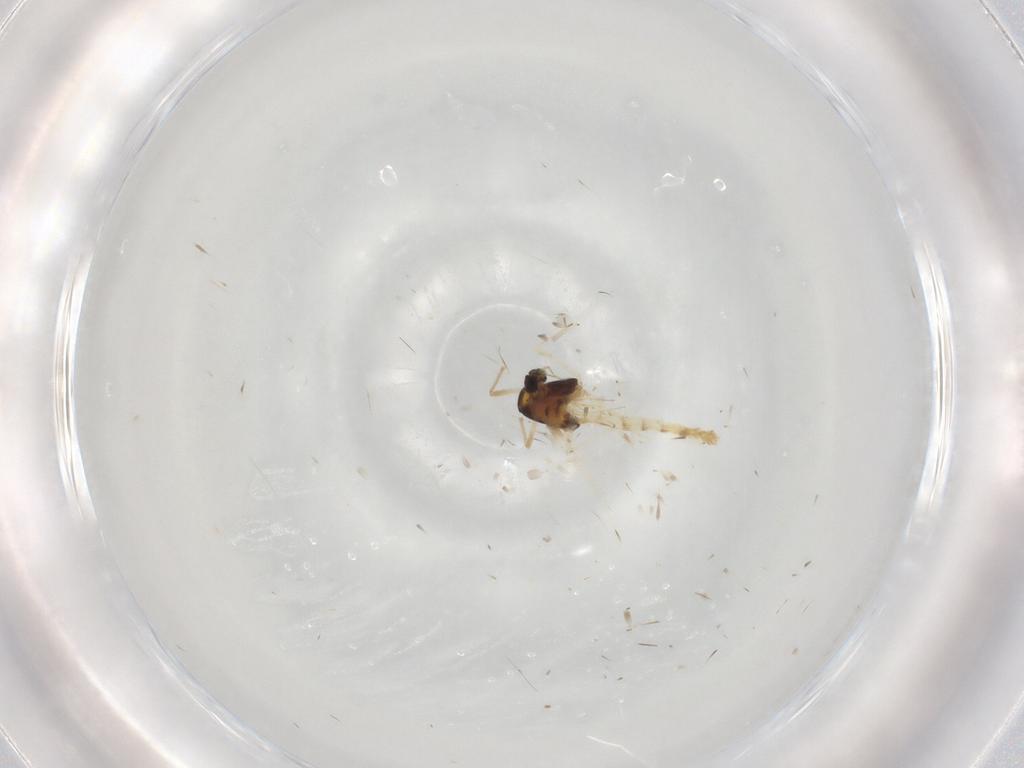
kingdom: Animalia
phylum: Arthropoda
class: Insecta
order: Diptera
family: Chironomidae
